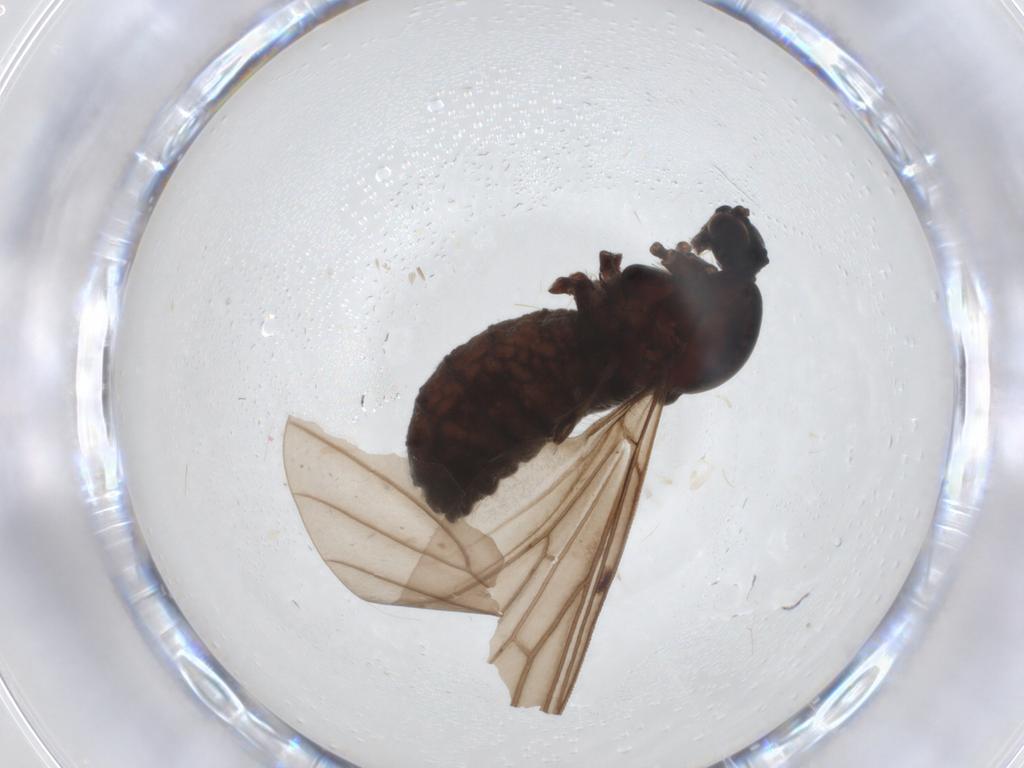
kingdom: Animalia
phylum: Arthropoda
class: Insecta
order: Diptera
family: Bibionidae
